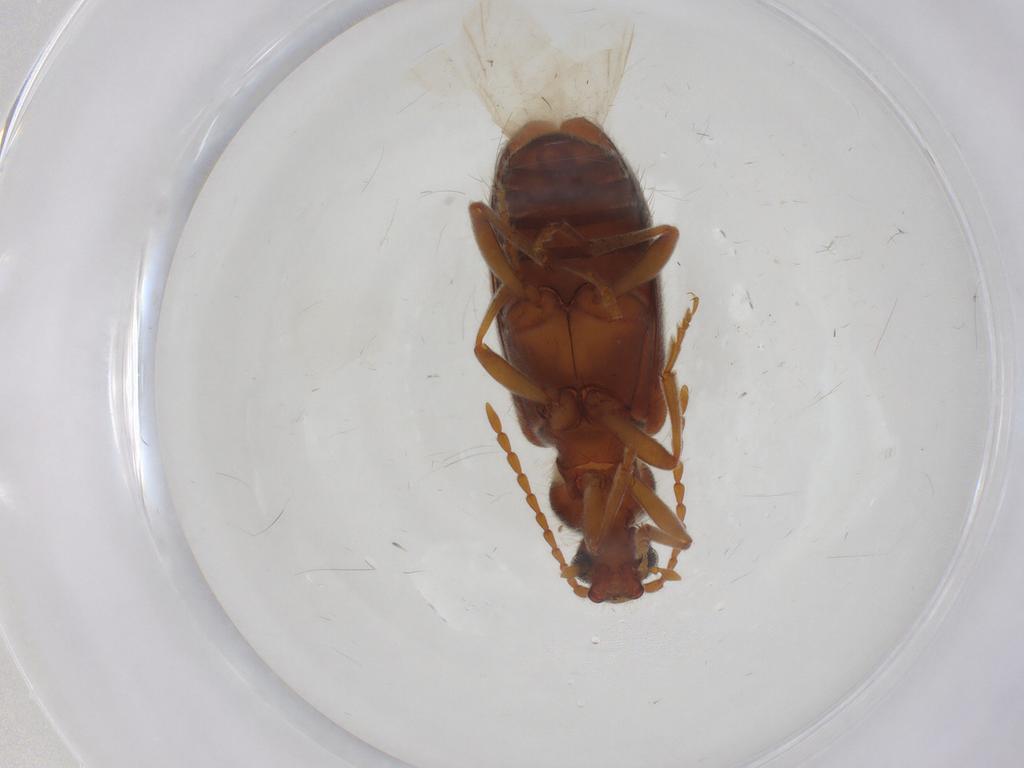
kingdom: Animalia
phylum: Arthropoda
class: Insecta
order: Coleoptera
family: Anthicidae
